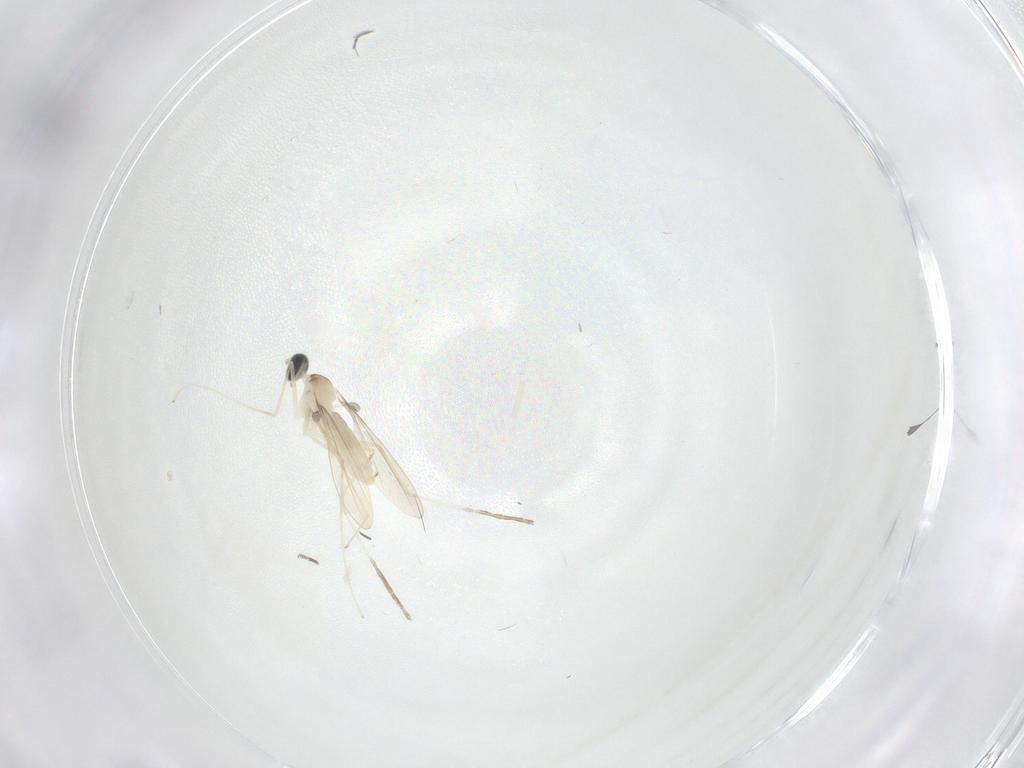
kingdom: Animalia
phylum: Arthropoda
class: Insecta
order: Diptera
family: Cecidomyiidae
